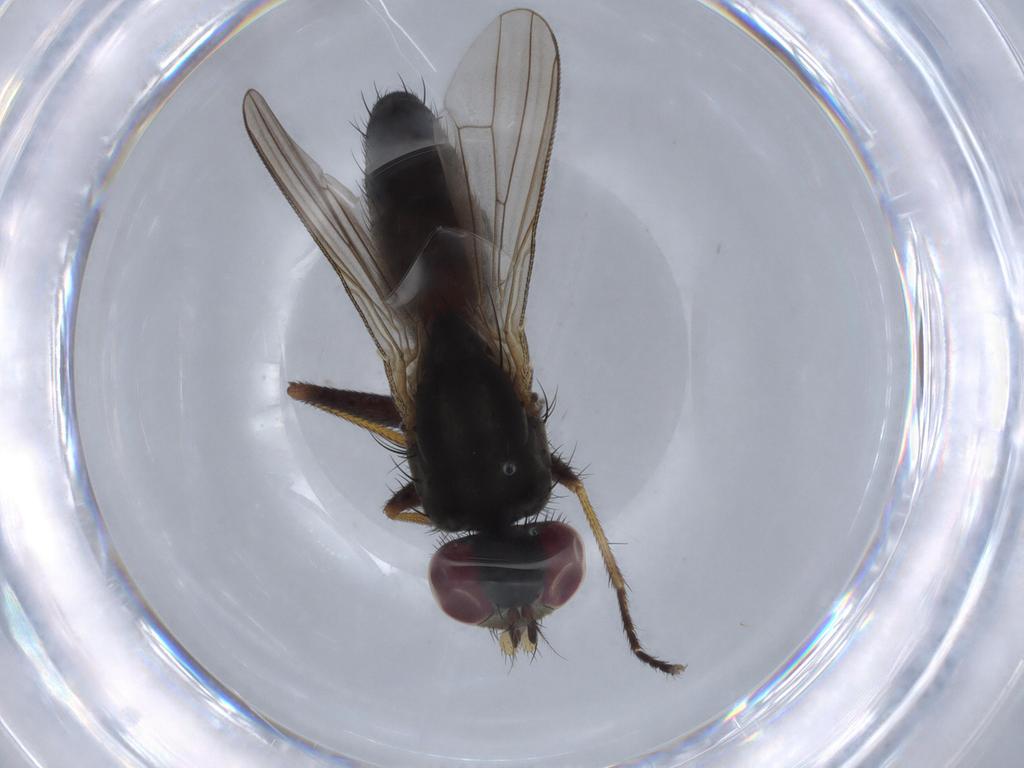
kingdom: Animalia
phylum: Arthropoda
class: Insecta
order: Diptera
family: Muscidae
